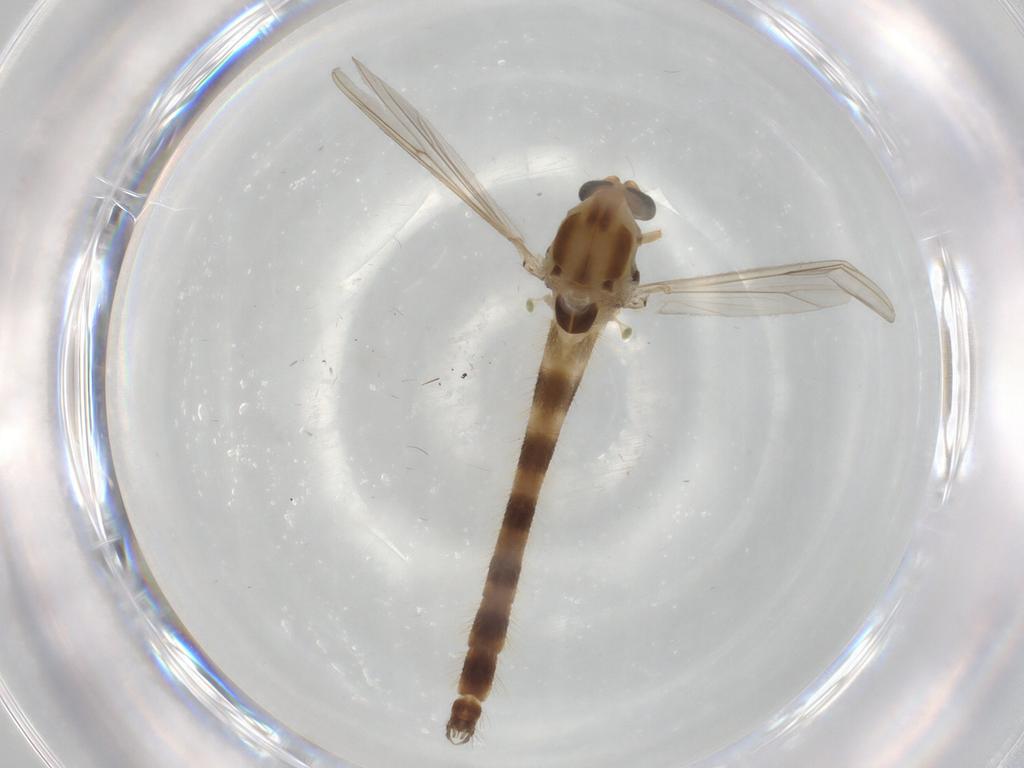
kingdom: Animalia
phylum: Arthropoda
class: Insecta
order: Diptera
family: Chironomidae
